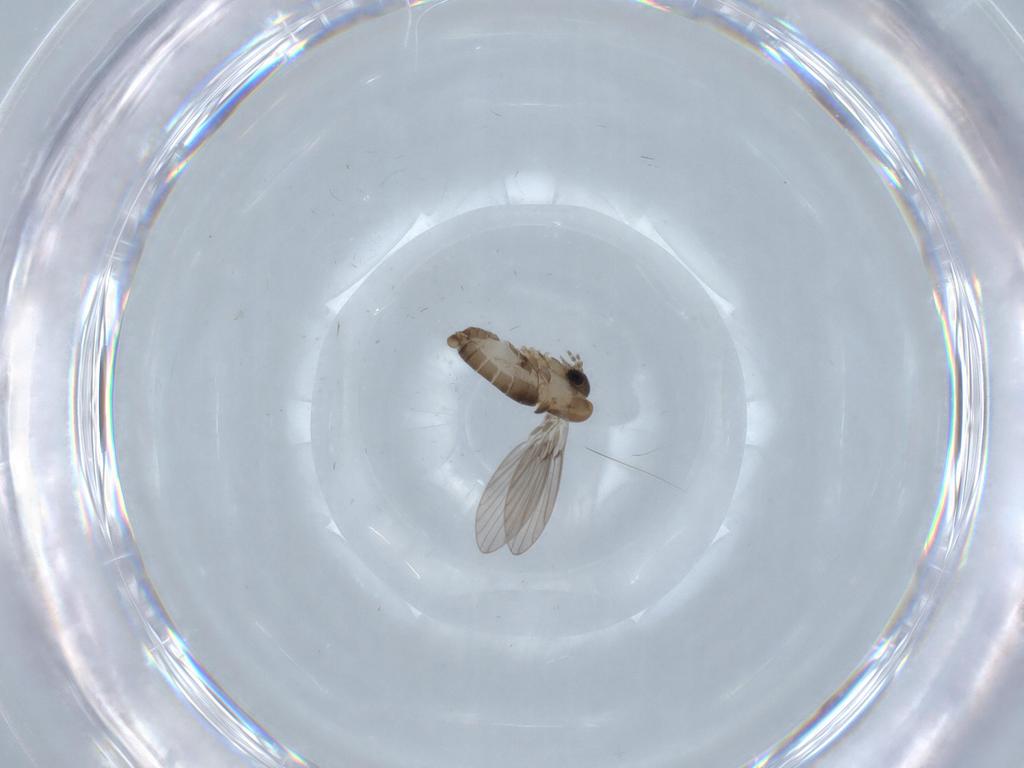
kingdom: Animalia
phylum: Arthropoda
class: Insecta
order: Diptera
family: Psychodidae
